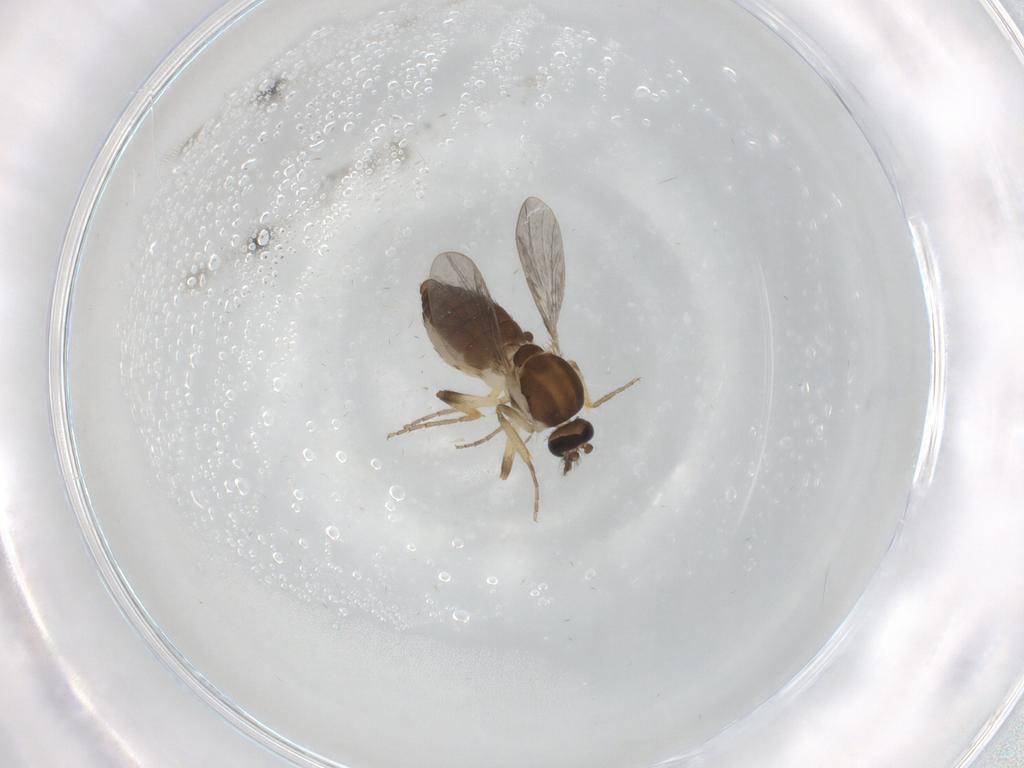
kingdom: Animalia
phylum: Arthropoda
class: Insecta
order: Diptera
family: Ceratopogonidae
